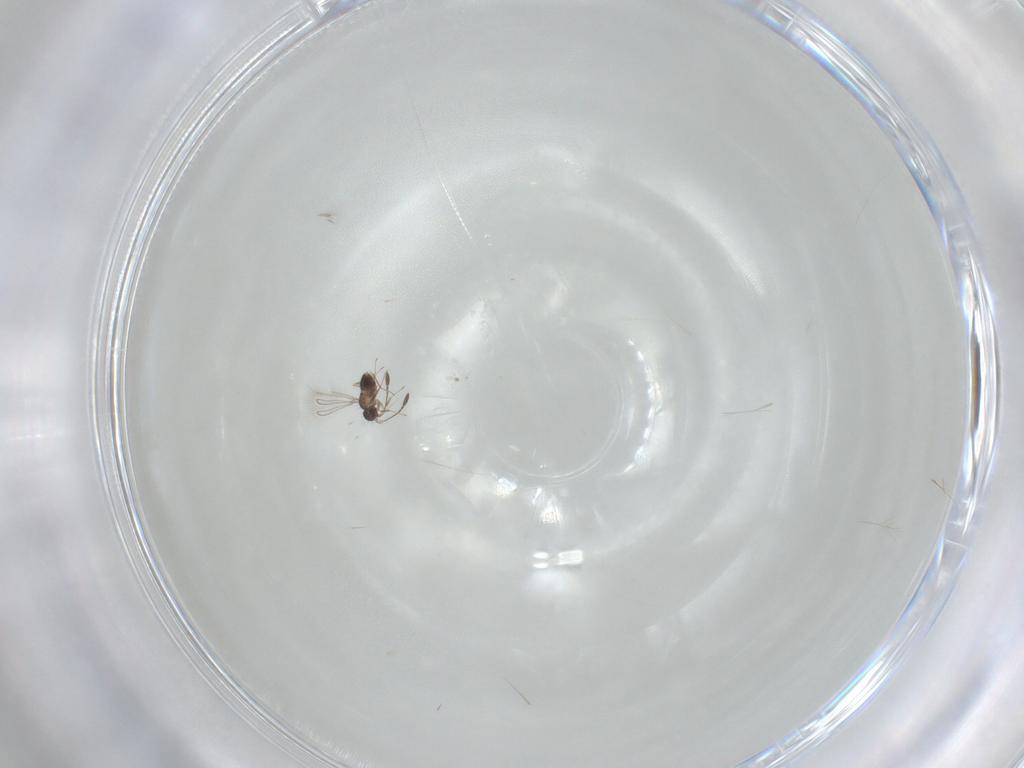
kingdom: Animalia
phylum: Arthropoda
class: Insecta
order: Hymenoptera
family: Mymaridae
